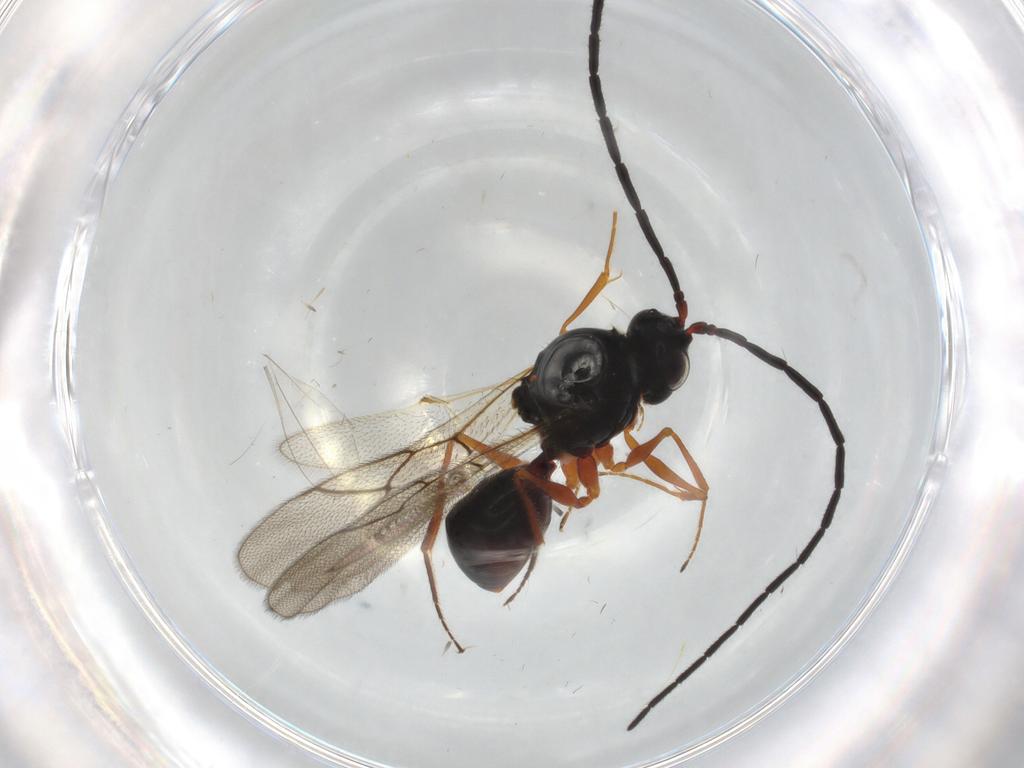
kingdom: Animalia
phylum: Arthropoda
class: Insecta
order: Hymenoptera
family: Figitidae
